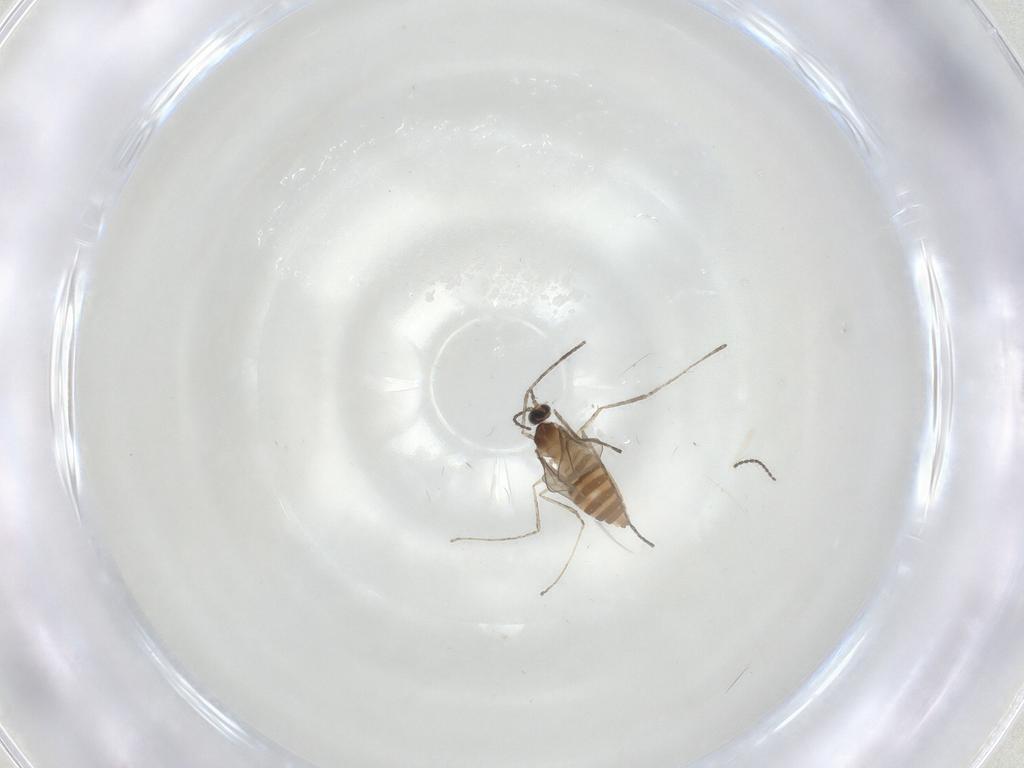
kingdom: Animalia
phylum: Arthropoda
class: Insecta
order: Diptera
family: Cecidomyiidae
